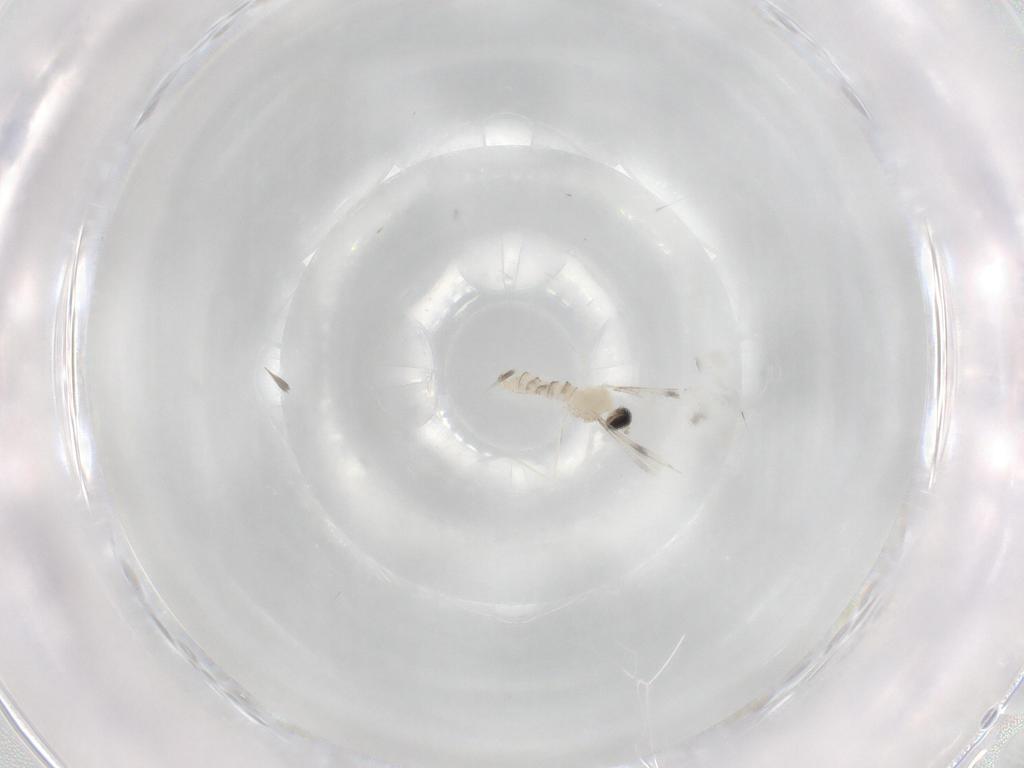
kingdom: Animalia
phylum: Arthropoda
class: Insecta
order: Diptera
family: Cecidomyiidae
